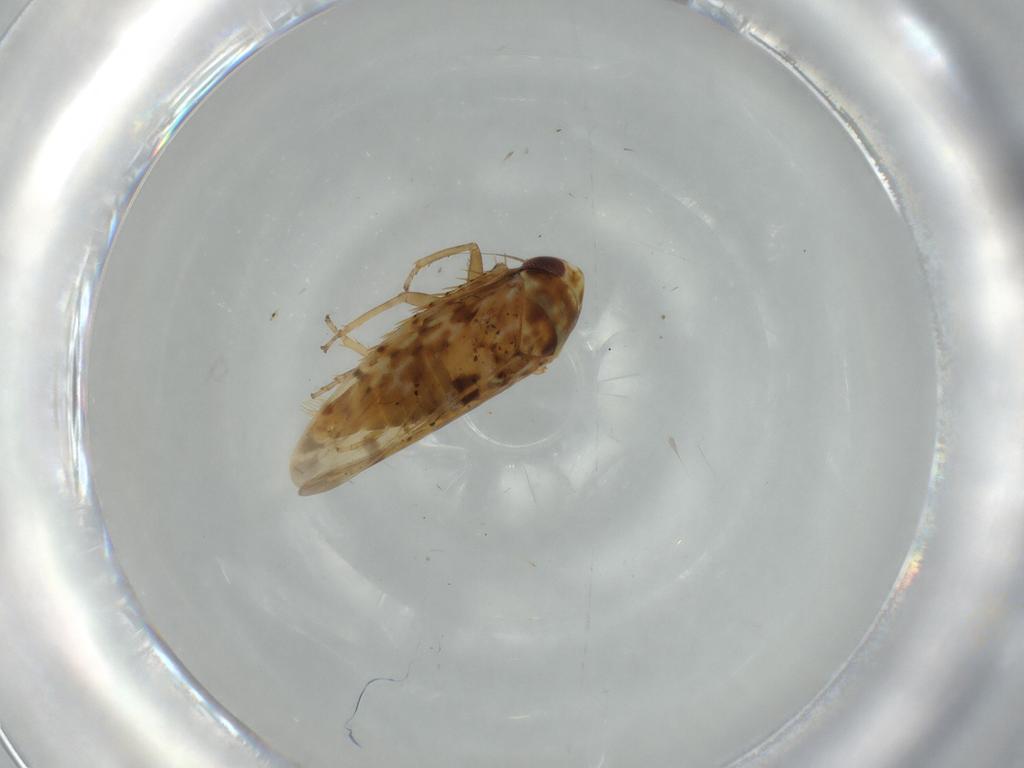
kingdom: Animalia
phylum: Arthropoda
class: Insecta
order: Hemiptera
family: Cicadellidae
